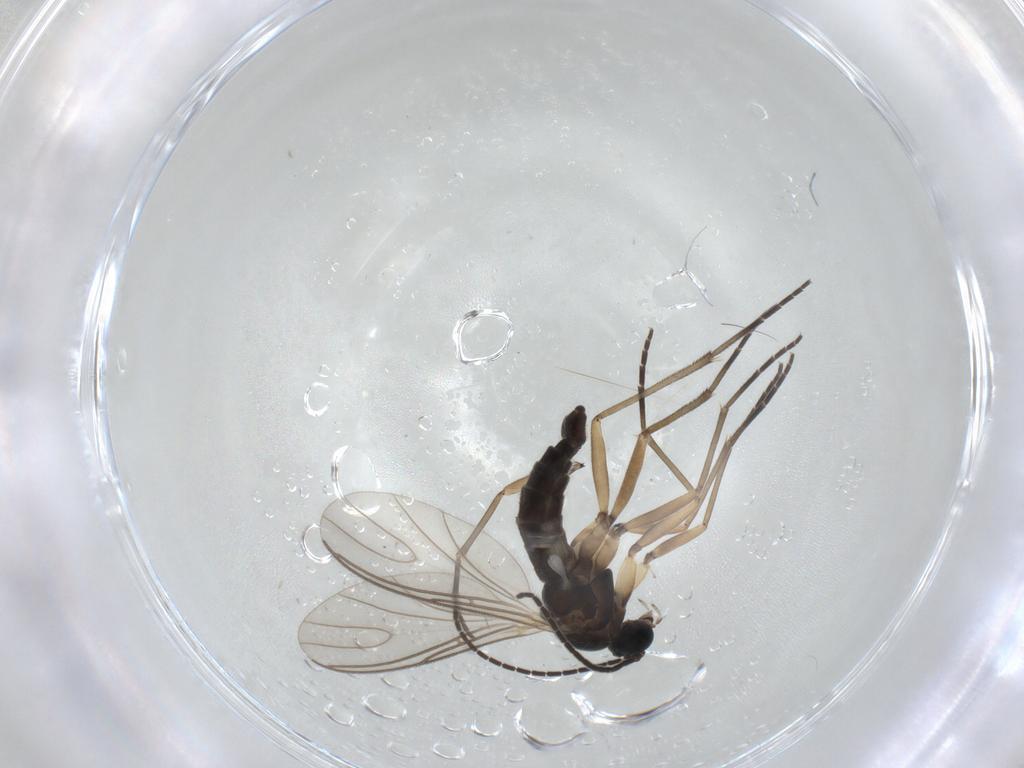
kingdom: Animalia
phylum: Arthropoda
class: Insecta
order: Diptera
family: Sciaridae
